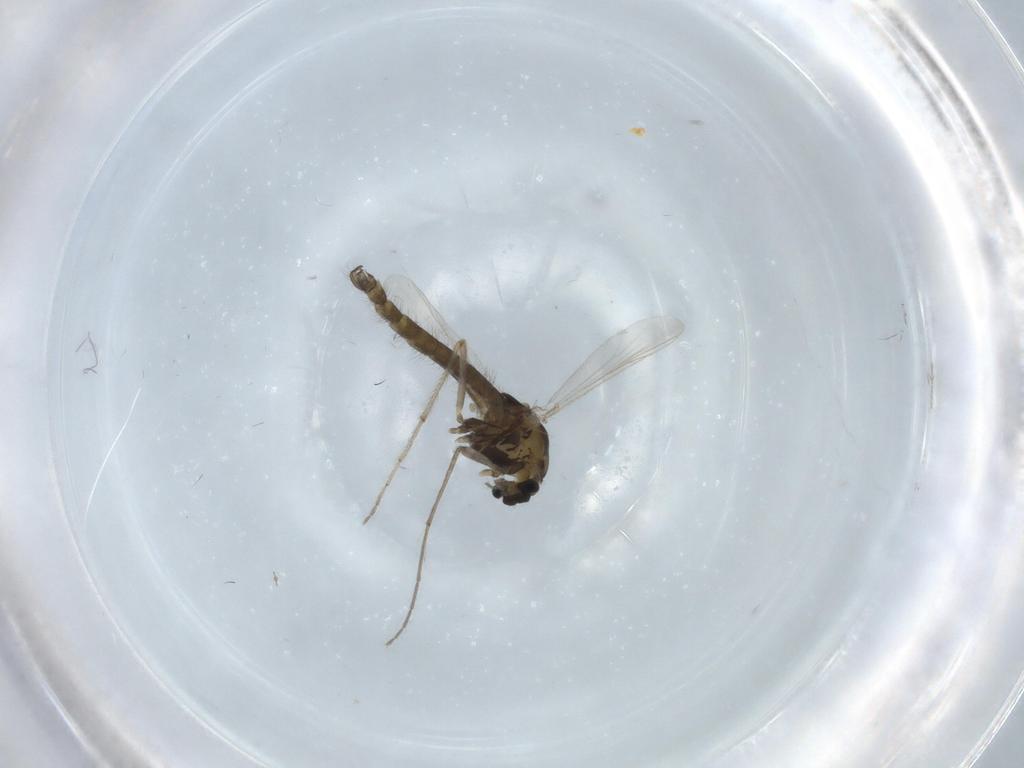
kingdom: Animalia
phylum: Arthropoda
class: Insecta
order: Diptera
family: Chironomidae
